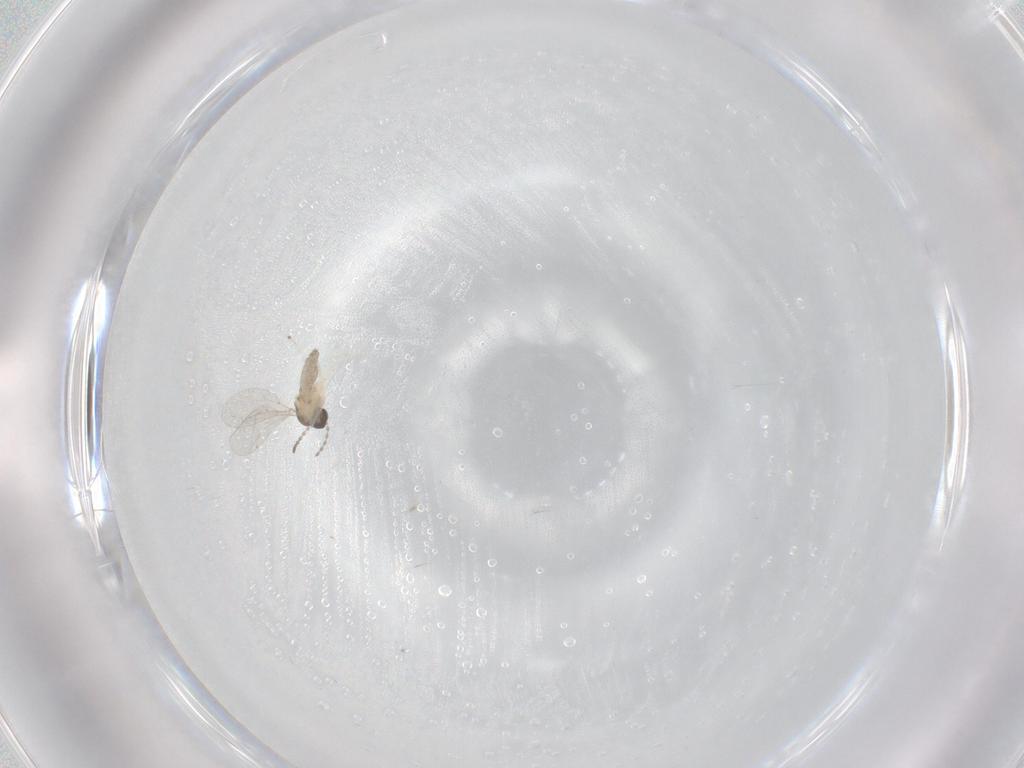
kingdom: Animalia
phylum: Arthropoda
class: Insecta
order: Diptera
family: Cecidomyiidae
